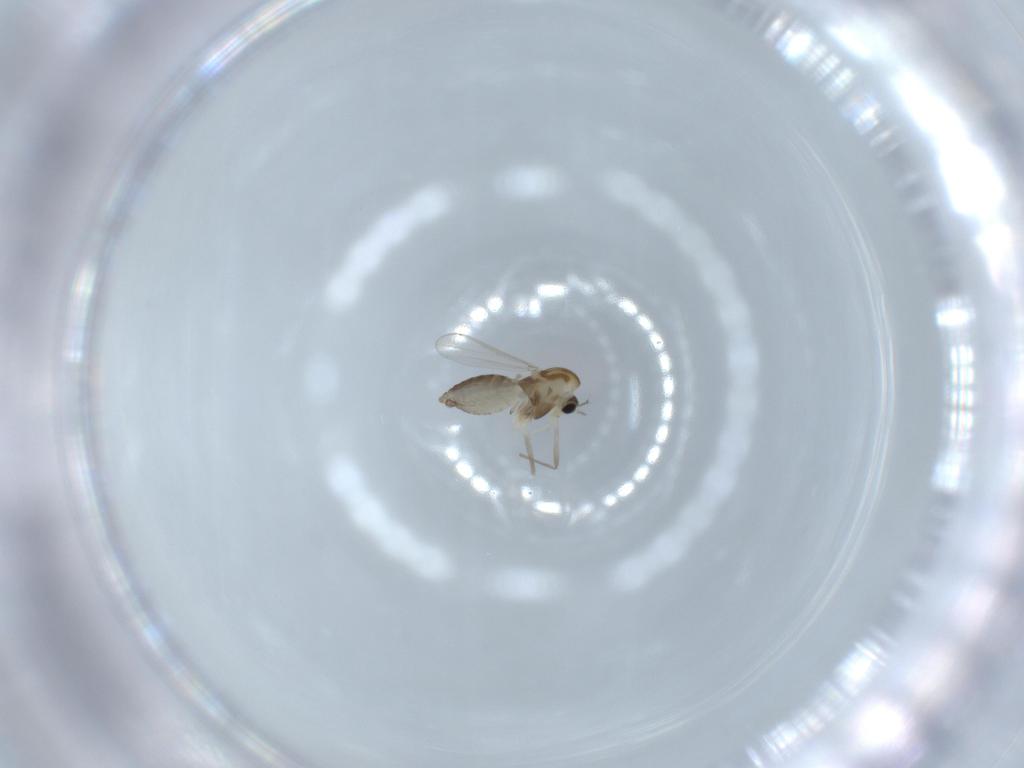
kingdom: Animalia
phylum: Arthropoda
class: Insecta
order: Diptera
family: Chironomidae
